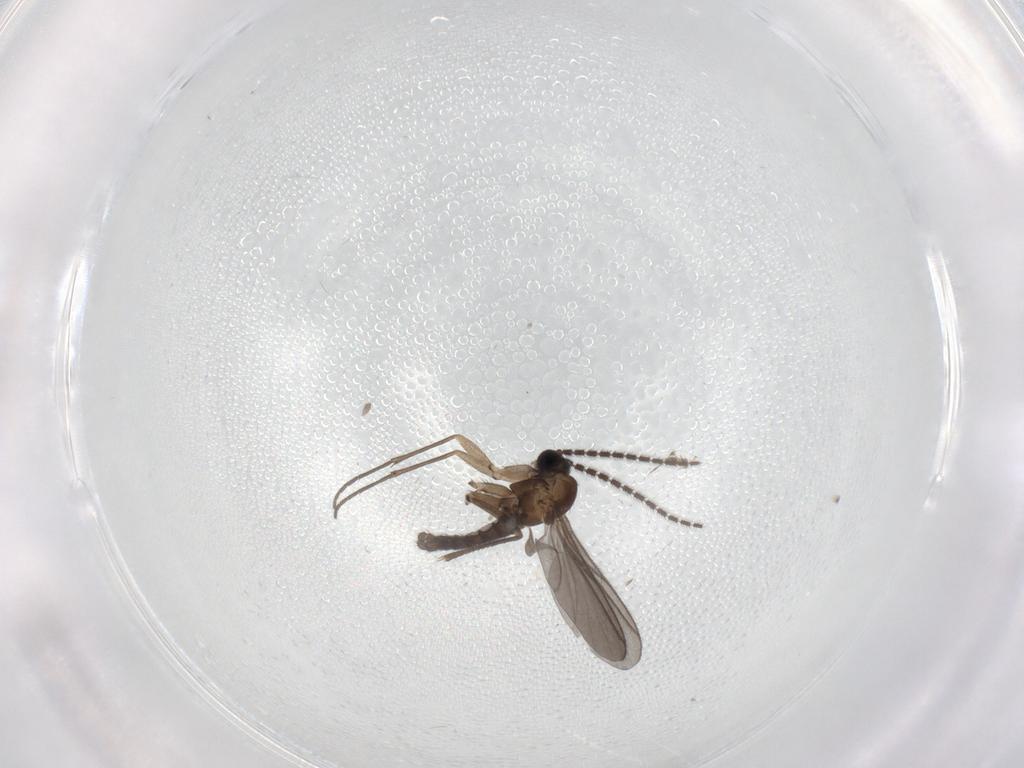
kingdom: Animalia
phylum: Arthropoda
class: Insecta
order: Diptera
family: Sciaridae
